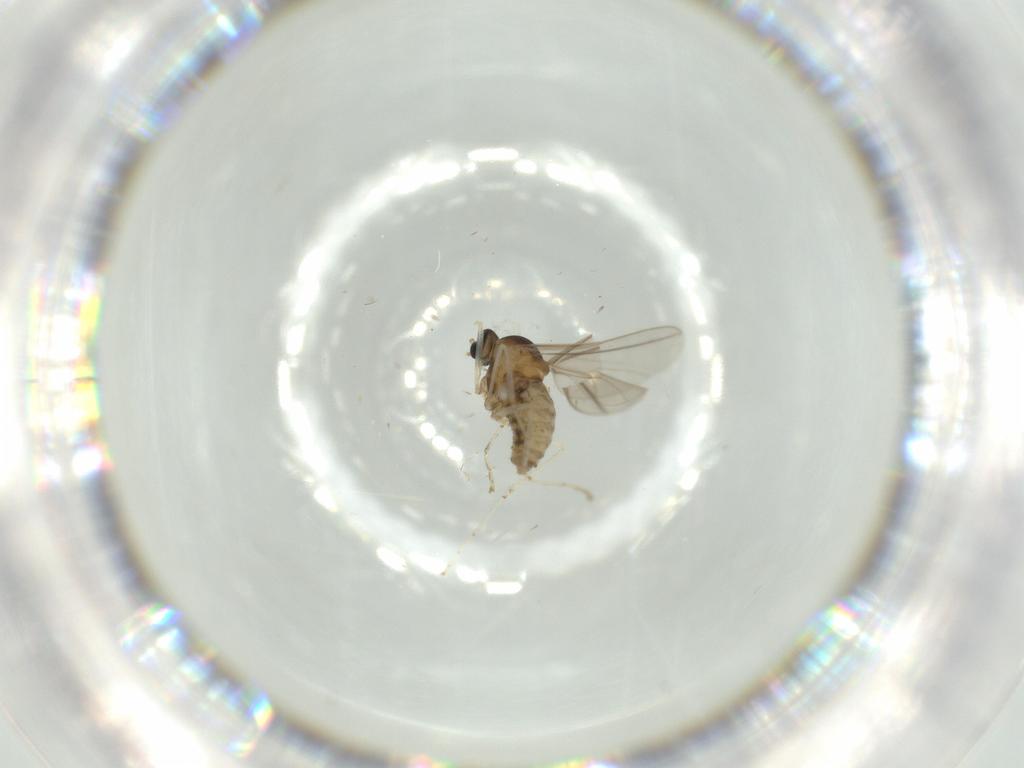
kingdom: Animalia
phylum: Arthropoda
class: Insecta
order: Diptera
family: Cecidomyiidae
